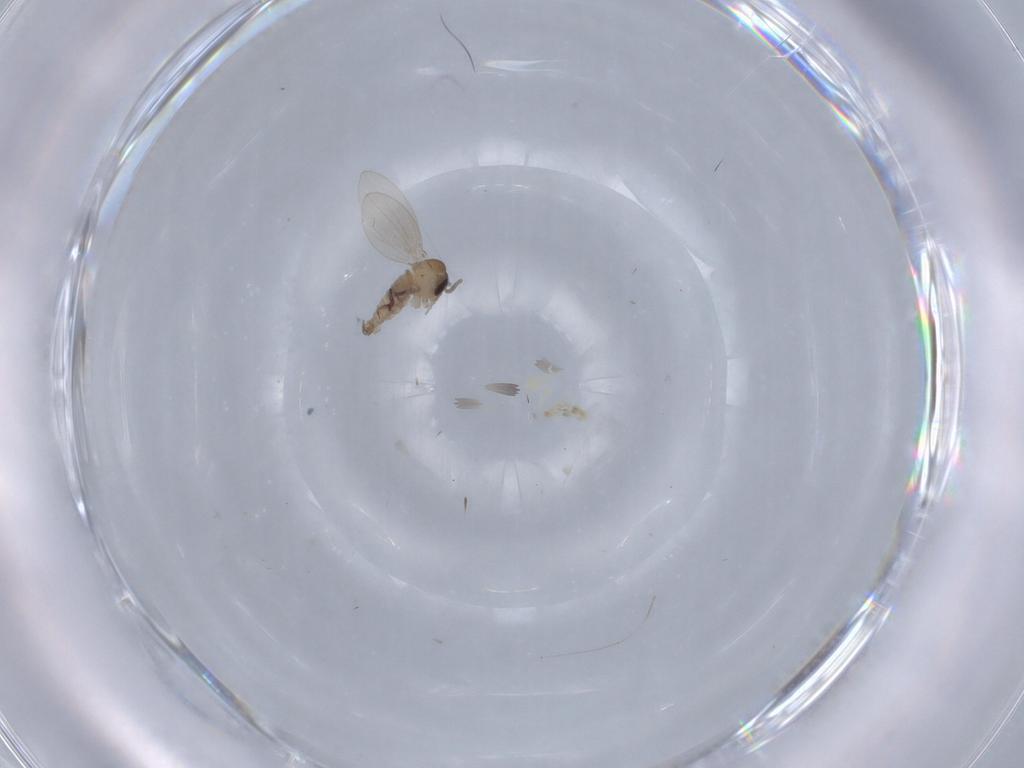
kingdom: Animalia
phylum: Arthropoda
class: Insecta
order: Diptera
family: Psychodidae
